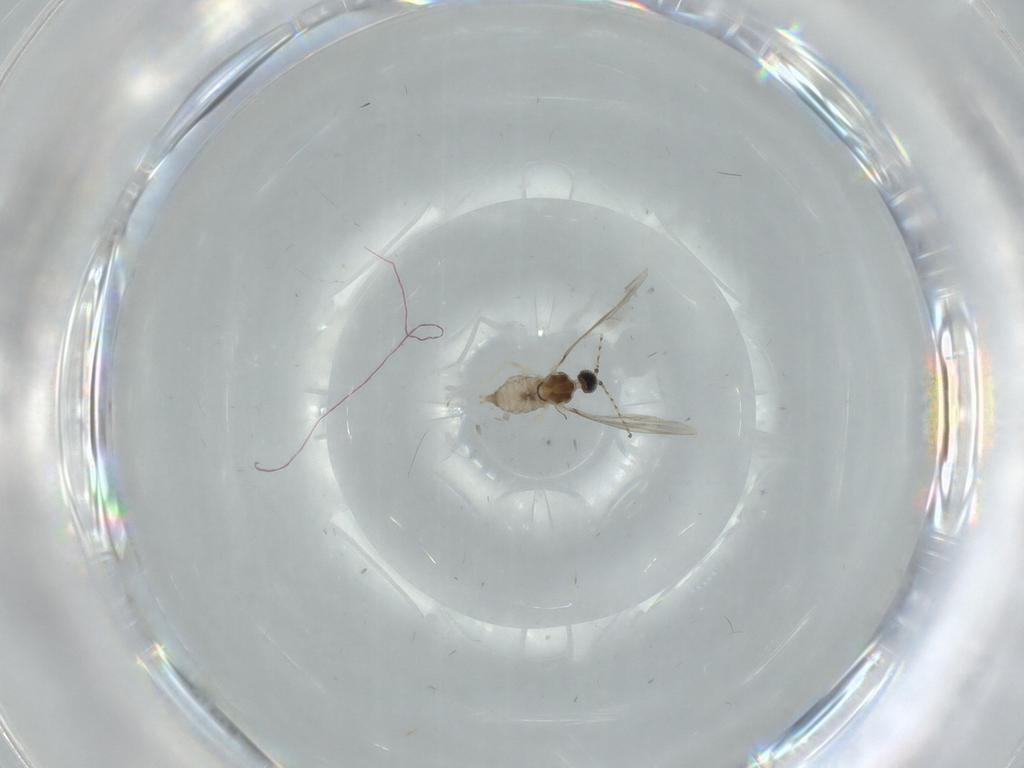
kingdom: Animalia
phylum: Arthropoda
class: Insecta
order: Diptera
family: Cecidomyiidae
